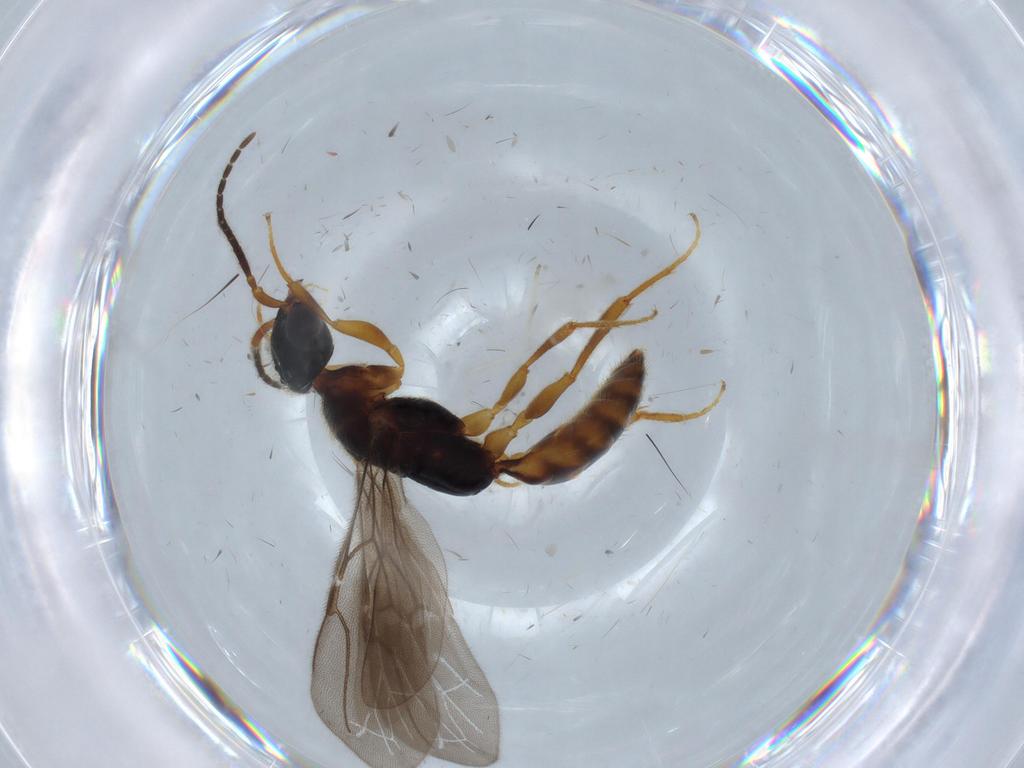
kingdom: Animalia
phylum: Arthropoda
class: Insecta
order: Hymenoptera
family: Bethylidae
